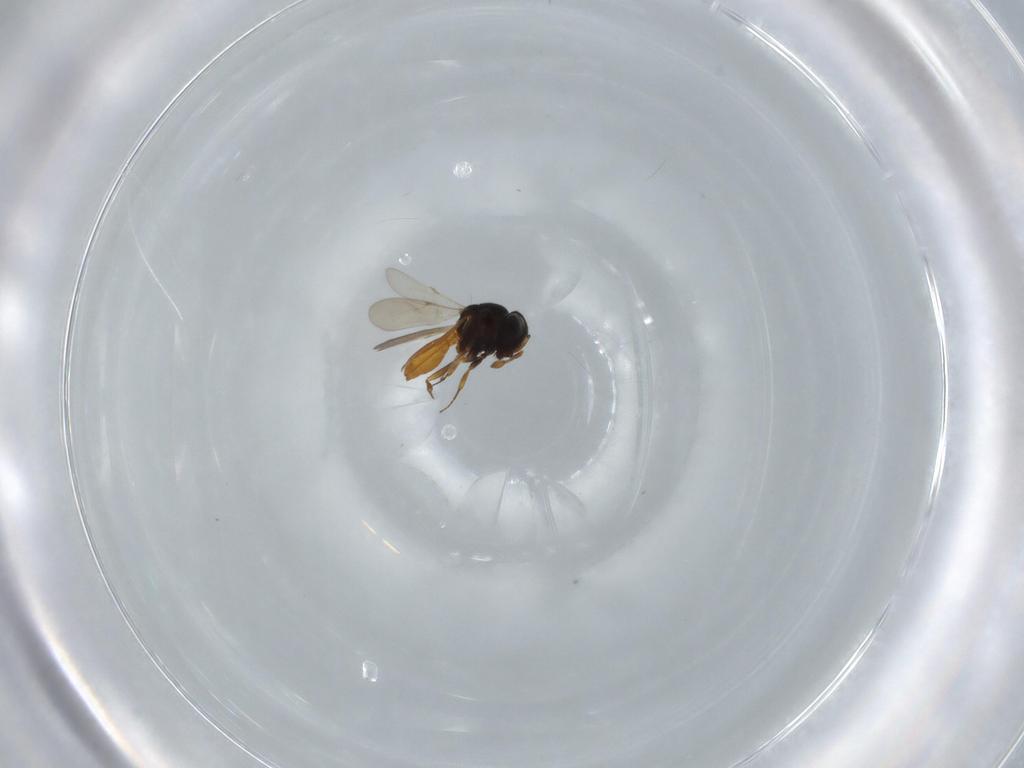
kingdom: Animalia
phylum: Arthropoda
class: Insecta
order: Hymenoptera
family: Scelionidae
